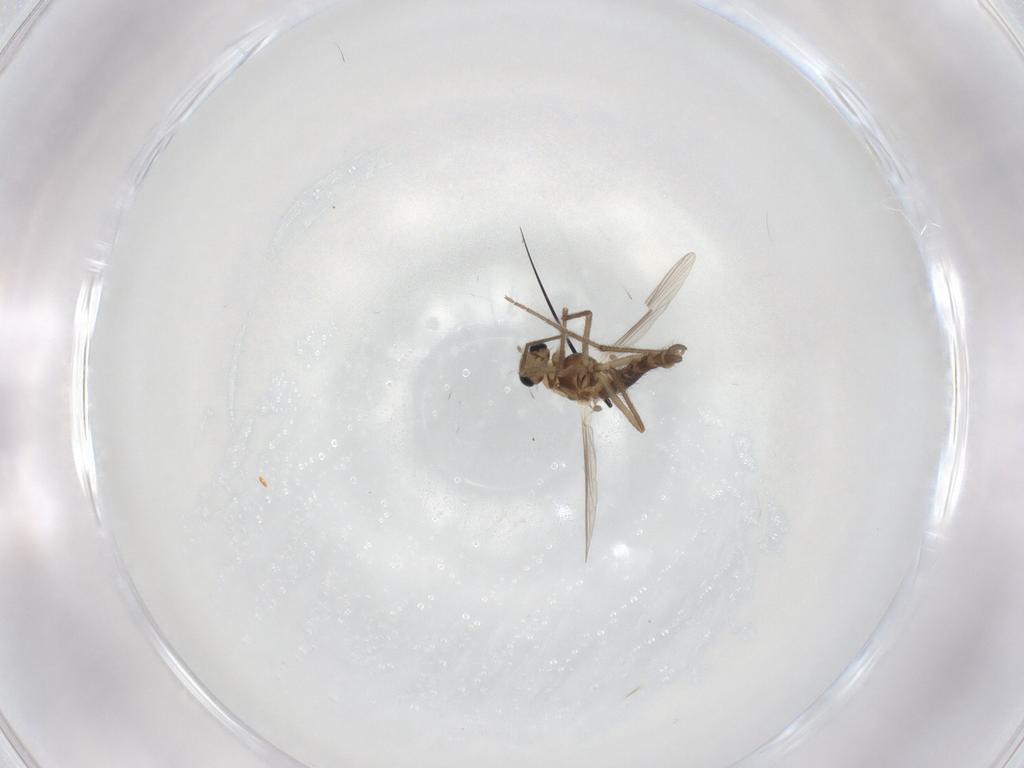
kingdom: Animalia
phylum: Arthropoda
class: Insecta
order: Diptera
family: Chironomidae
